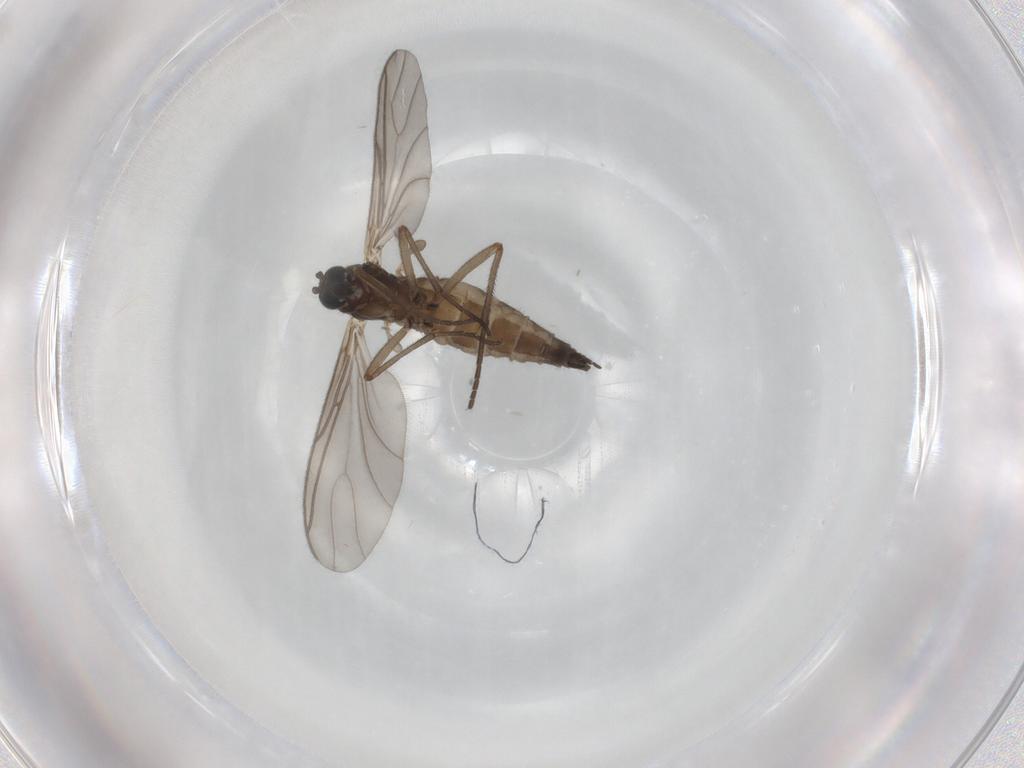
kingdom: Animalia
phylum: Arthropoda
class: Insecta
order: Diptera
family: Sciaridae
